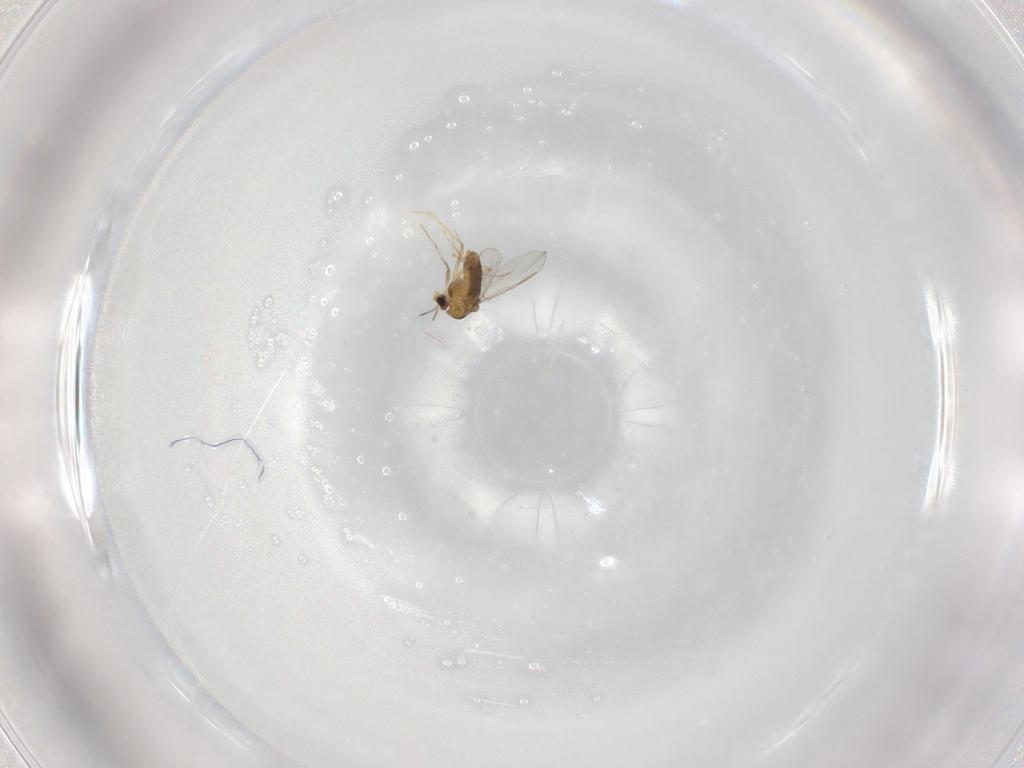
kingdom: Animalia
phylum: Arthropoda
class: Insecta
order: Diptera
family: Chironomidae
